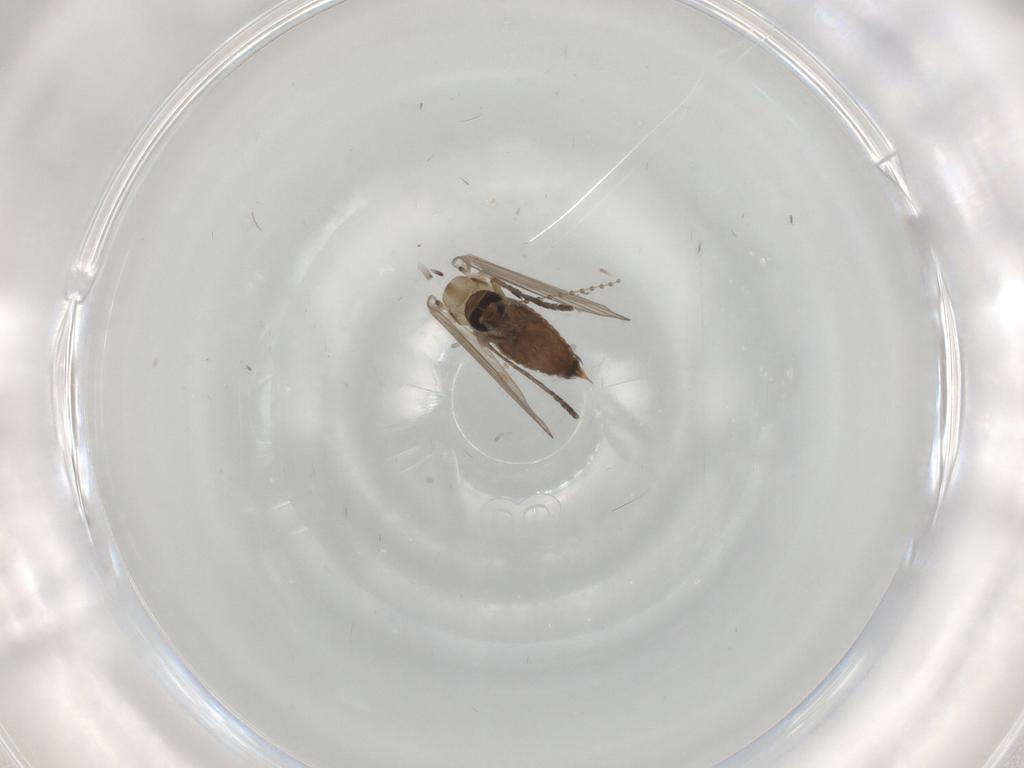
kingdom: Animalia
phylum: Arthropoda
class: Insecta
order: Diptera
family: Psychodidae
